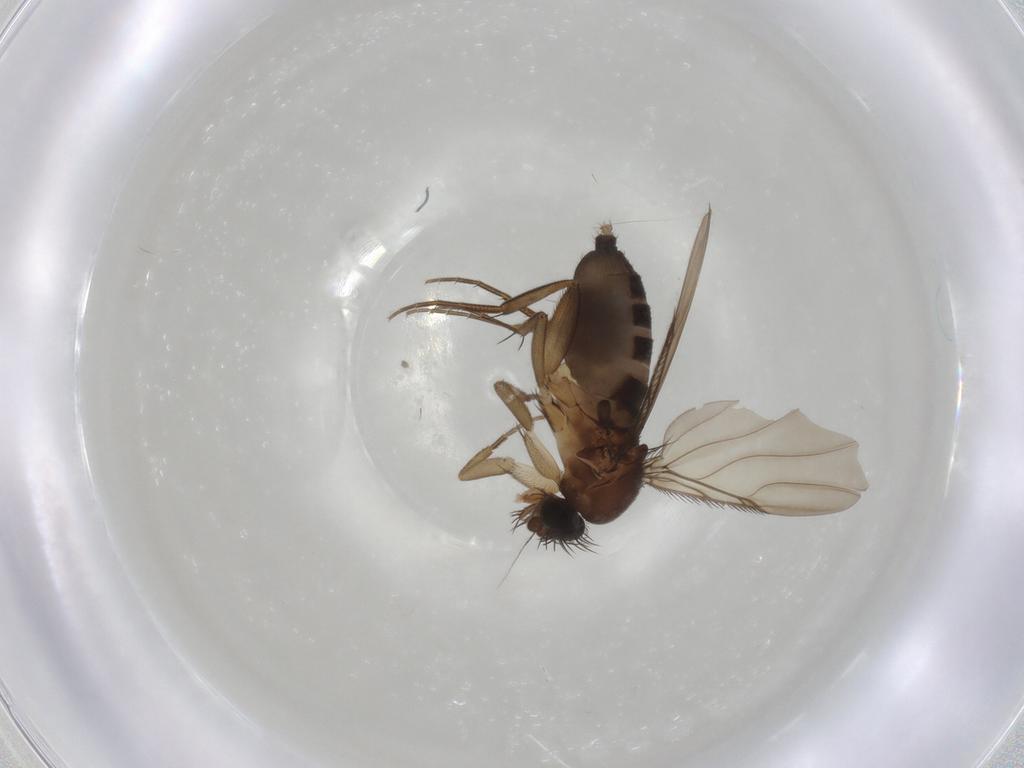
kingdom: Animalia
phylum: Arthropoda
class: Insecta
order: Diptera
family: Phoridae
